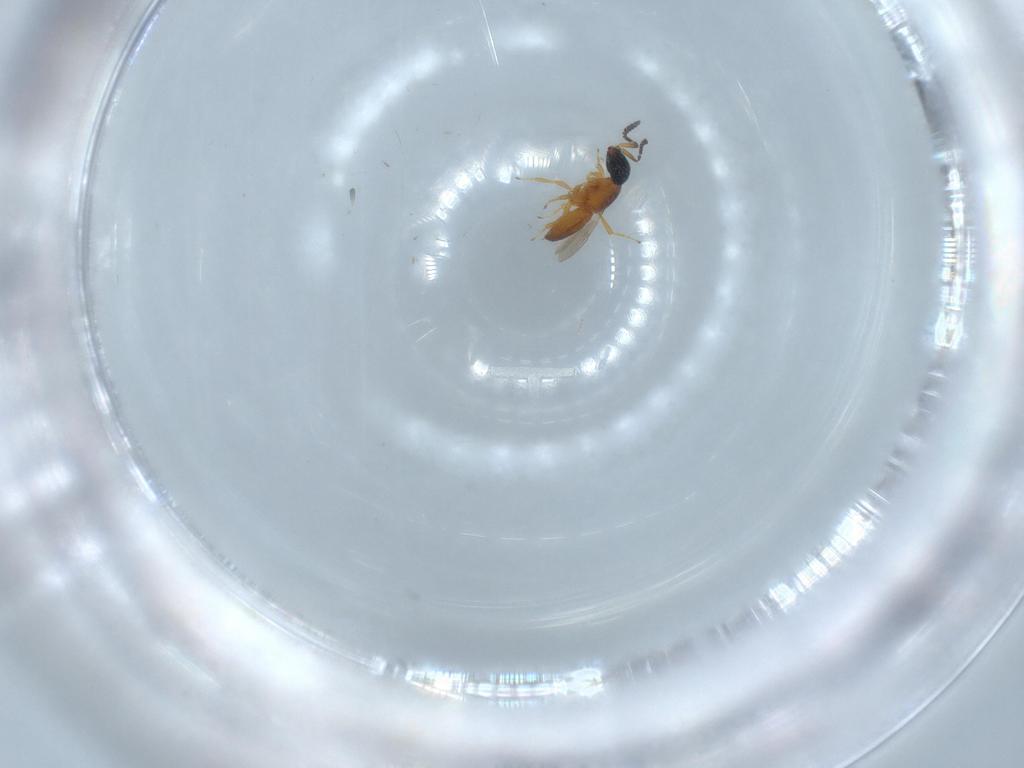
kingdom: Animalia
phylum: Arthropoda
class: Insecta
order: Hymenoptera
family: Scelionidae
